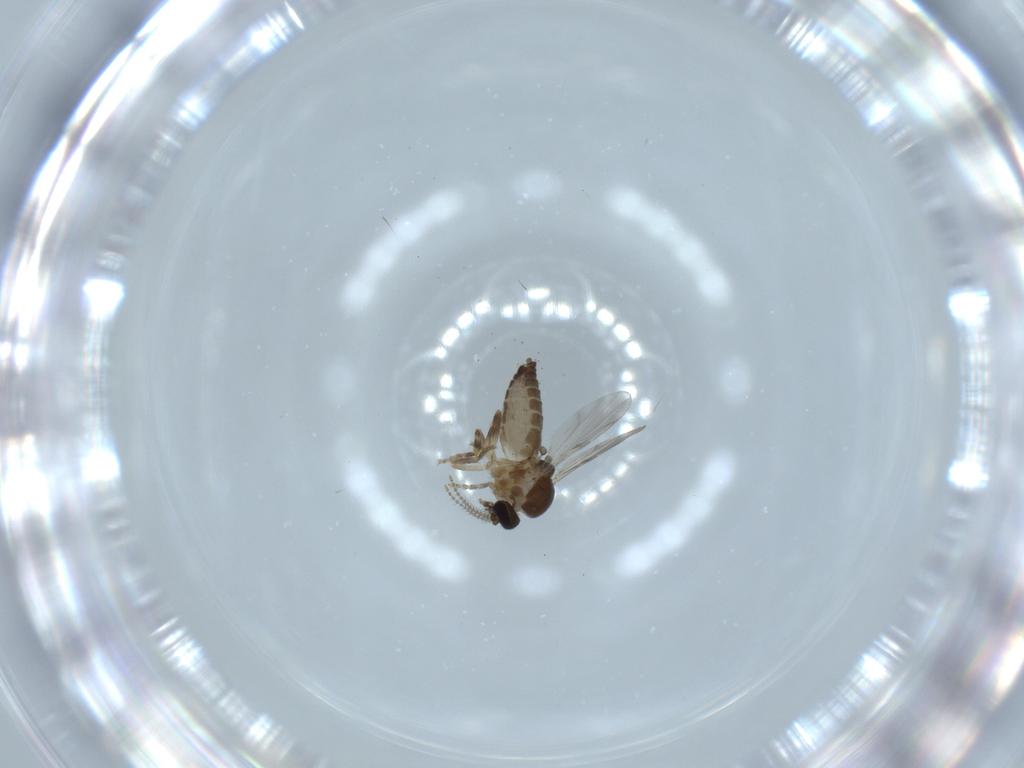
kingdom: Animalia
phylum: Arthropoda
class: Insecta
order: Diptera
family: Ceratopogonidae
